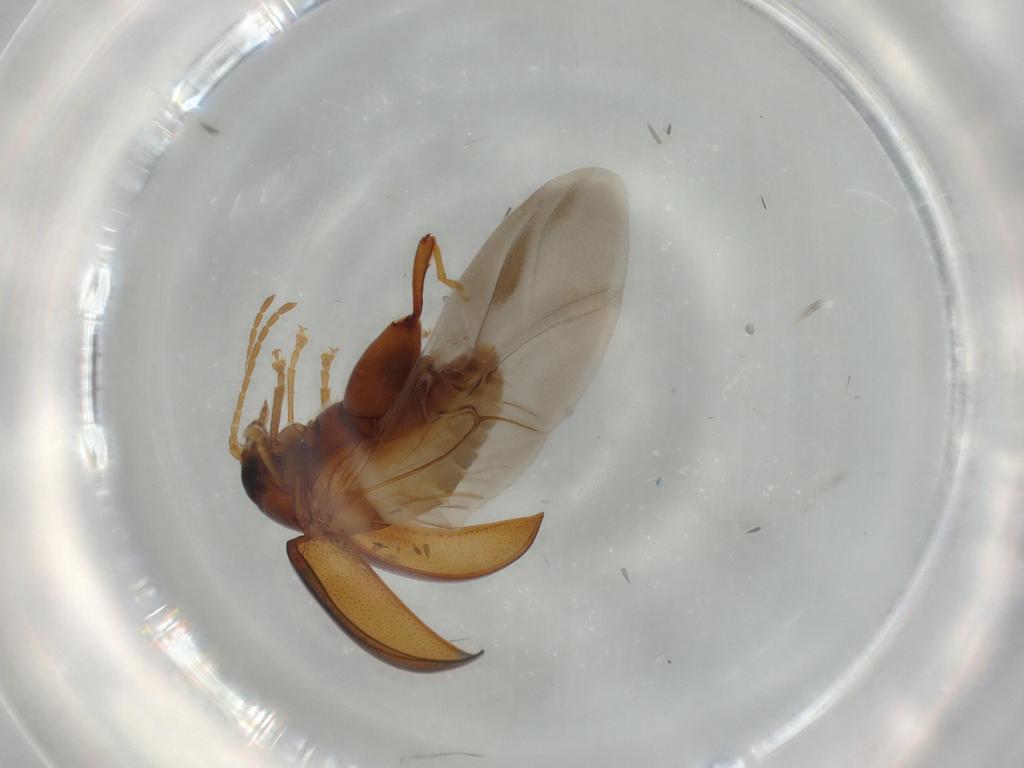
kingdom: Animalia
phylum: Arthropoda
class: Insecta
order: Coleoptera
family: Chrysomelidae
